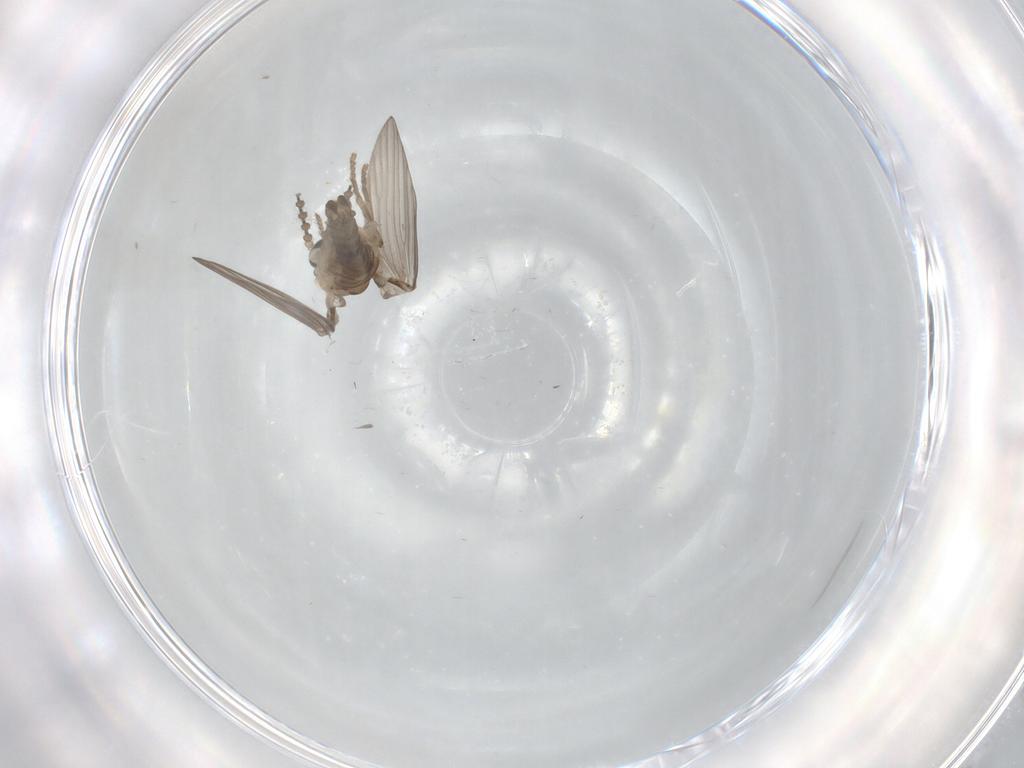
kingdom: Animalia
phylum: Arthropoda
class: Insecta
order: Diptera
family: Psychodidae
